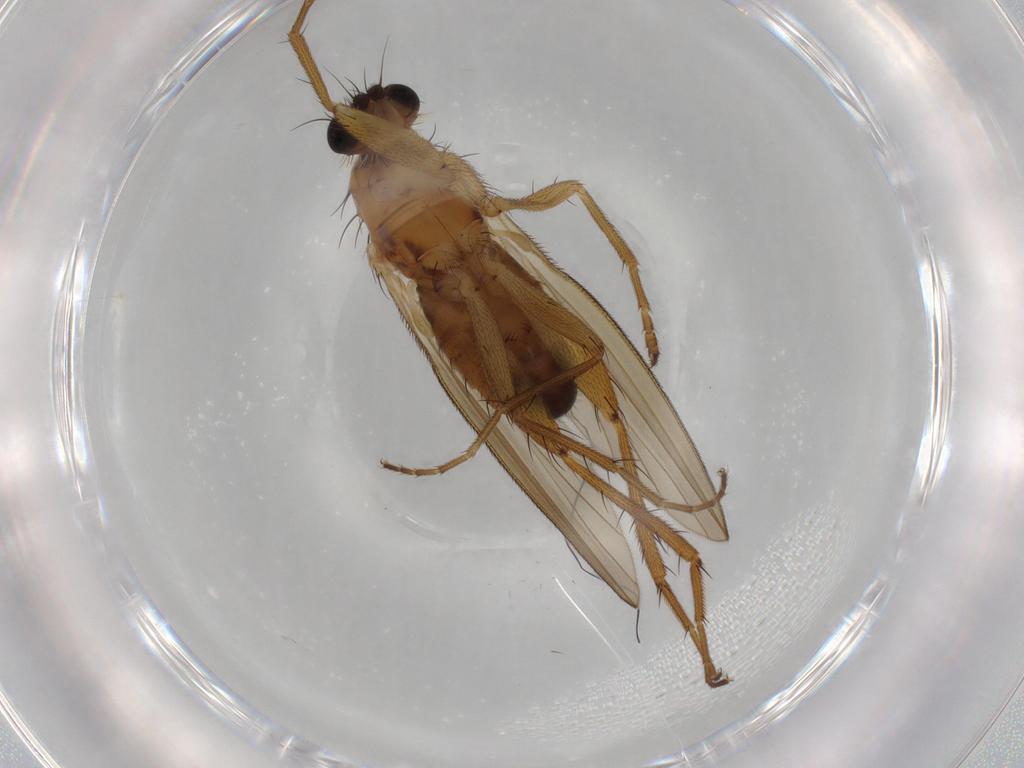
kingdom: Animalia
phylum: Arthropoda
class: Insecta
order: Diptera
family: Lonchopteridae
